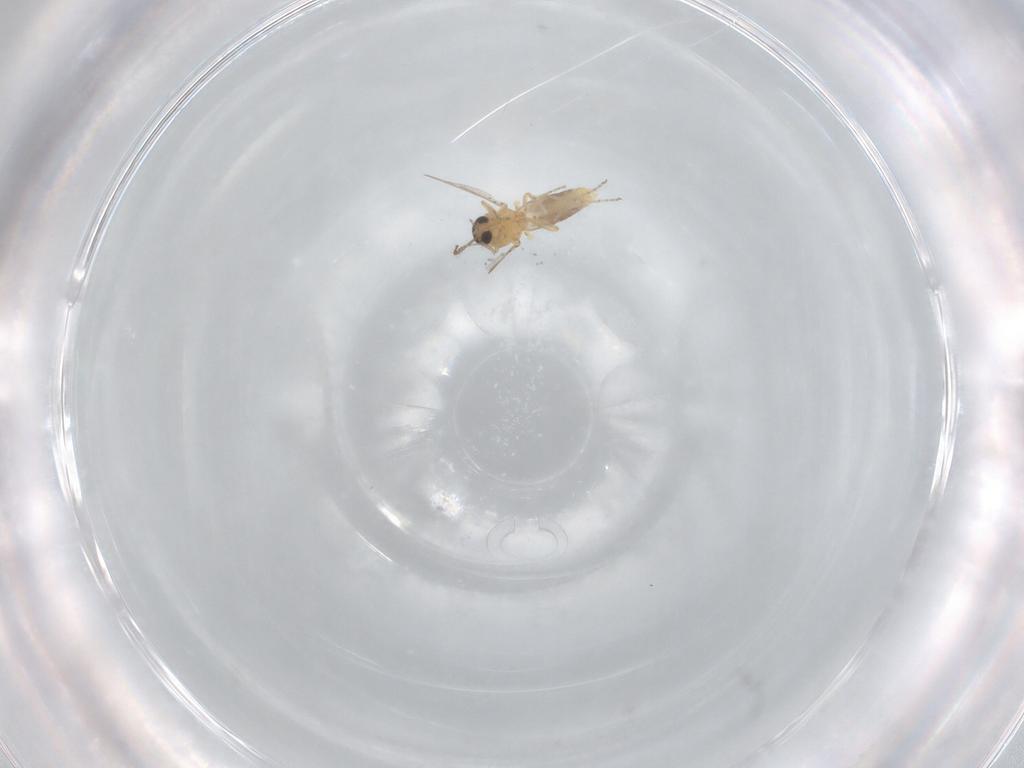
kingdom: Animalia
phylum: Arthropoda
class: Insecta
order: Diptera
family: Ceratopogonidae
